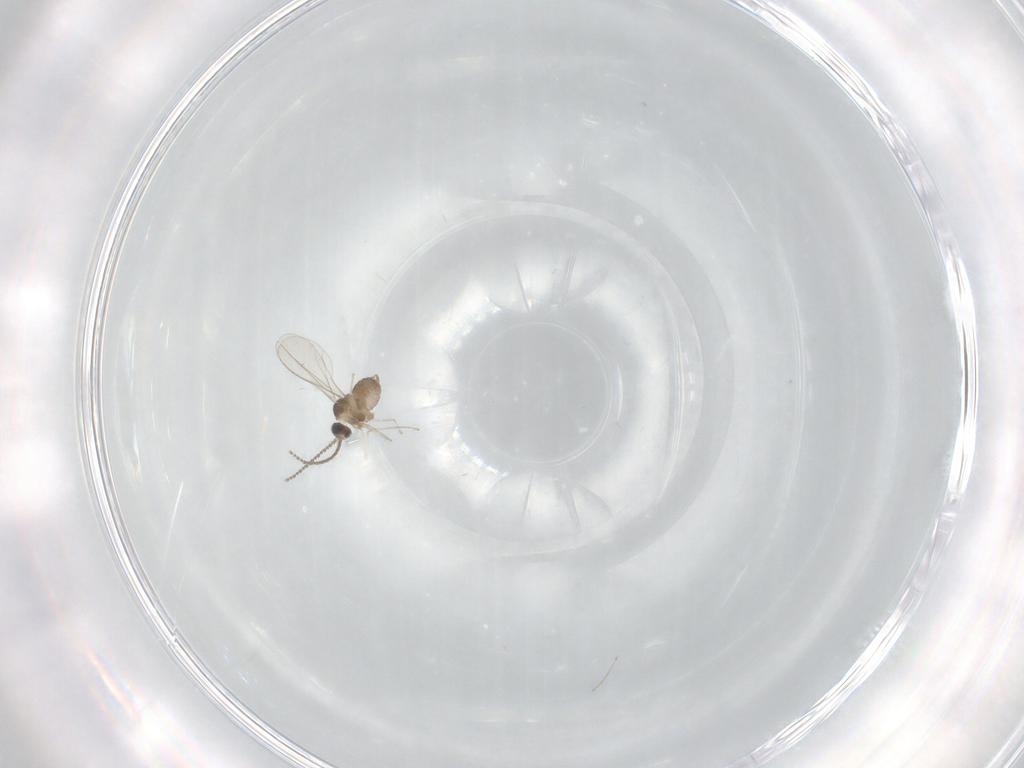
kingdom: Animalia
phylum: Arthropoda
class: Insecta
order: Diptera
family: Cecidomyiidae
